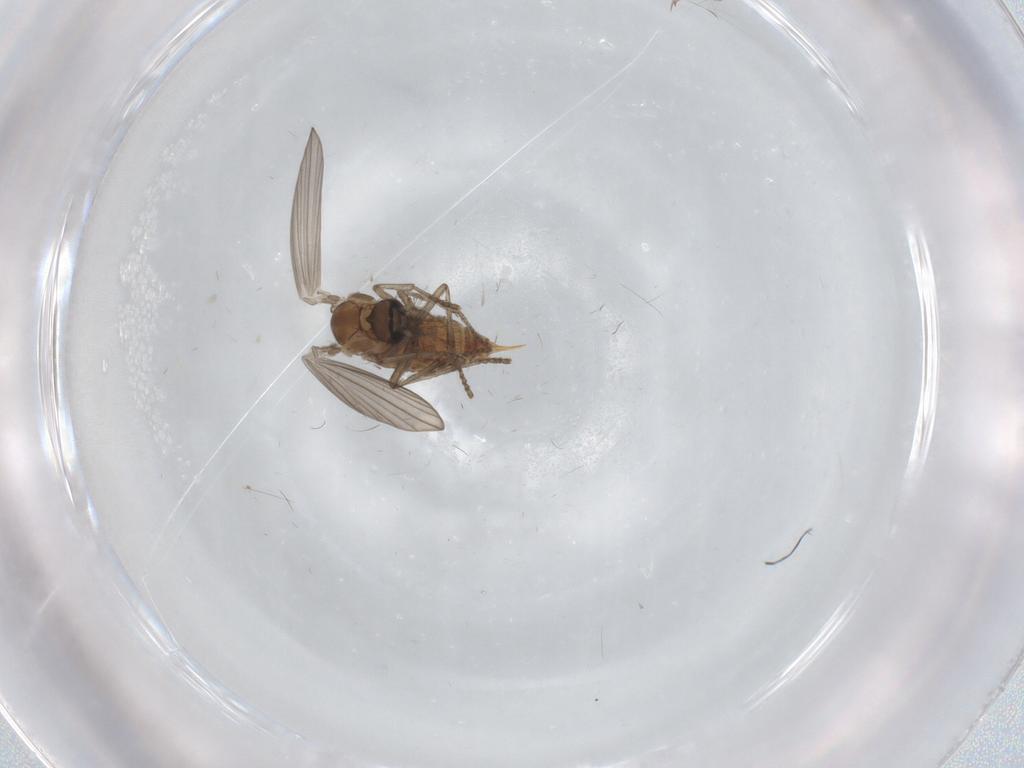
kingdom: Animalia
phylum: Arthropoda
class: Insecta
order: Diptera
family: Psychodidae
